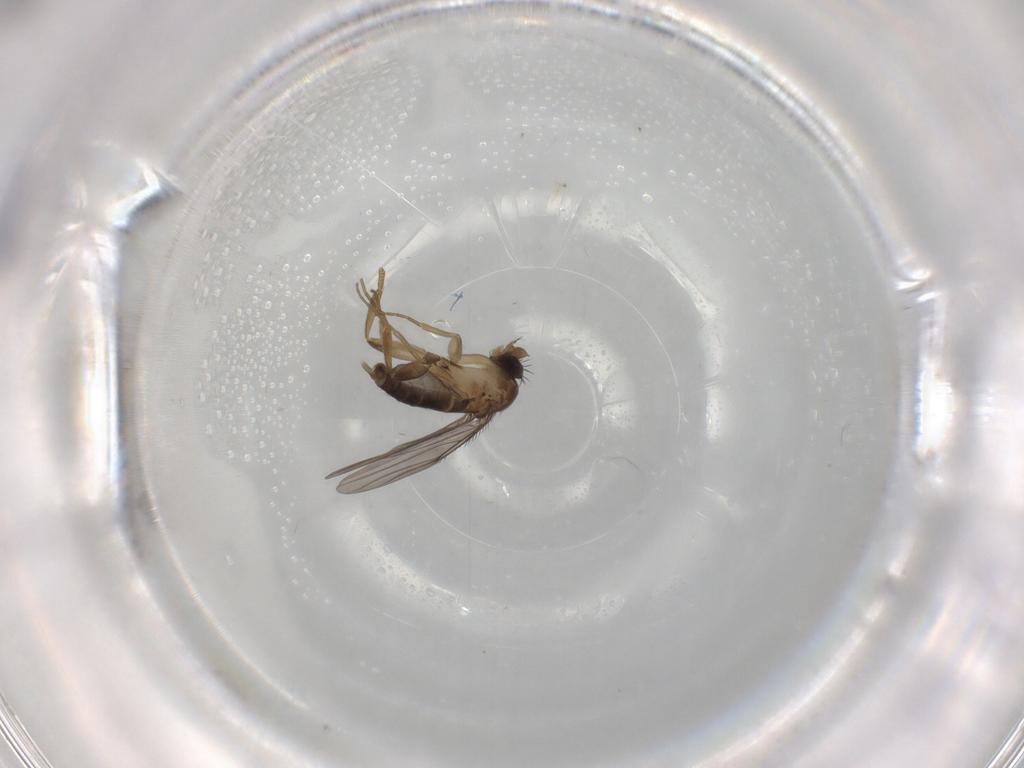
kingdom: Animalia
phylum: Arthropoda
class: Insecta
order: Diptera
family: Phoridae
